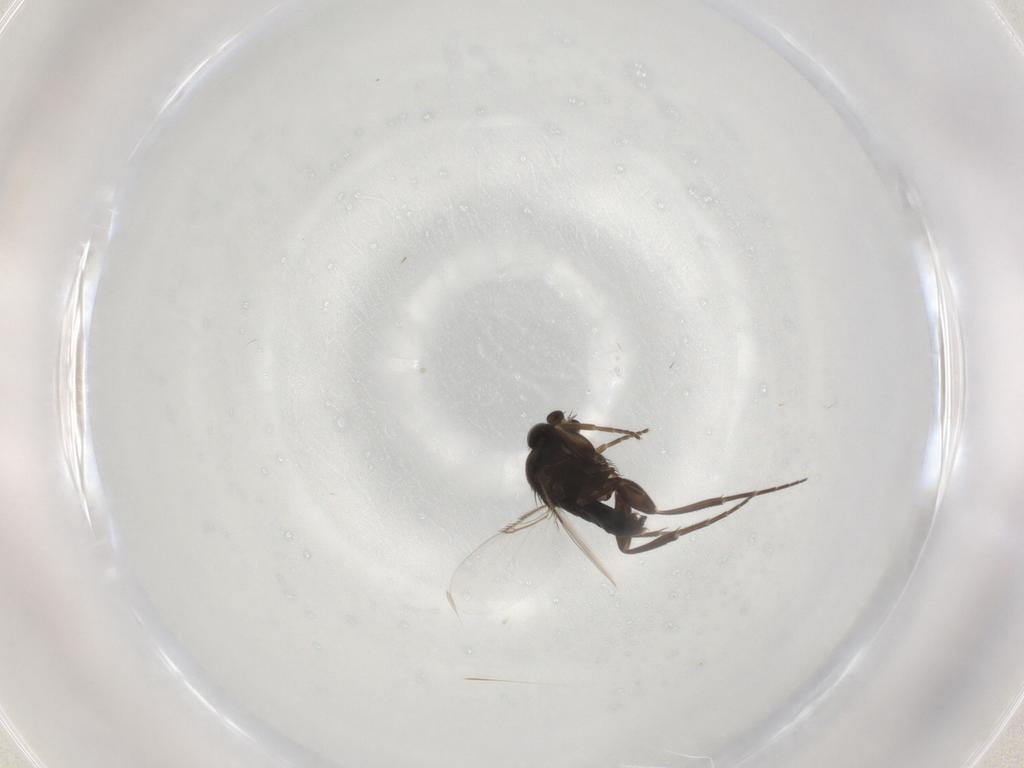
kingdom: Animalia
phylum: Arthropoda
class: Insecta
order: Diptera
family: Phoridae
